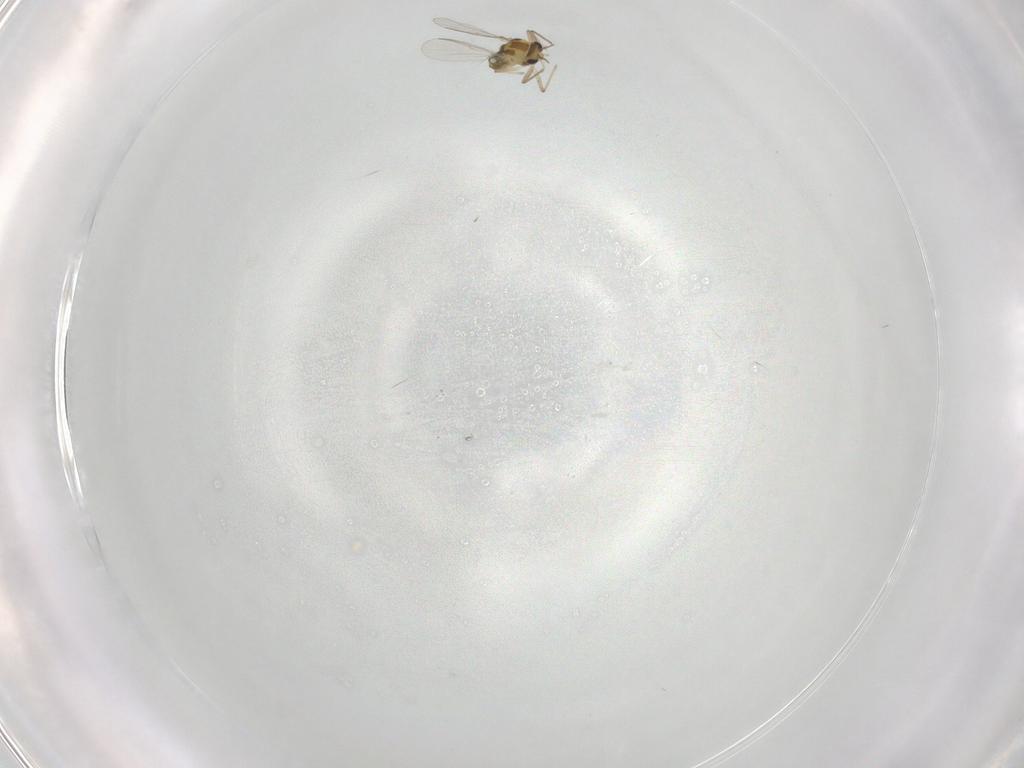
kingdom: Animalia
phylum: Arthropoda
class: Insecta
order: Diptera
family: Chironomidae
